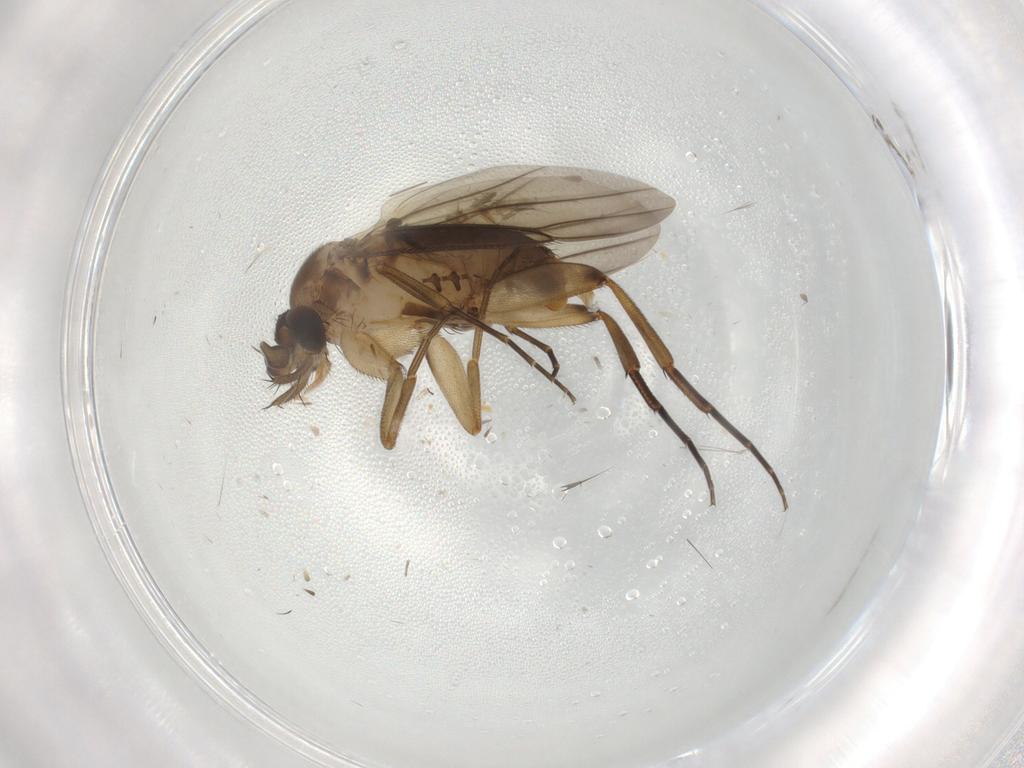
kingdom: Animalia
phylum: Arthropoda
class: Insecta
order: Diptera
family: Phoridae
